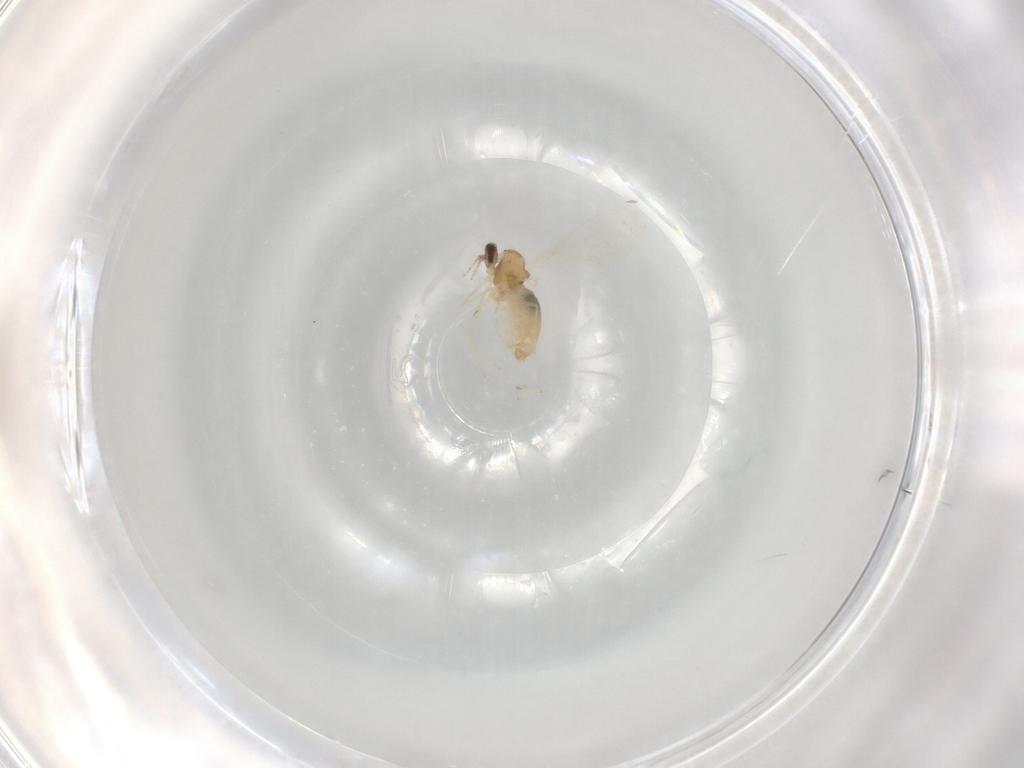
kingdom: Animalia
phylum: Arthropoda
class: Insecta
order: Diptera
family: Cecidomyiidae
